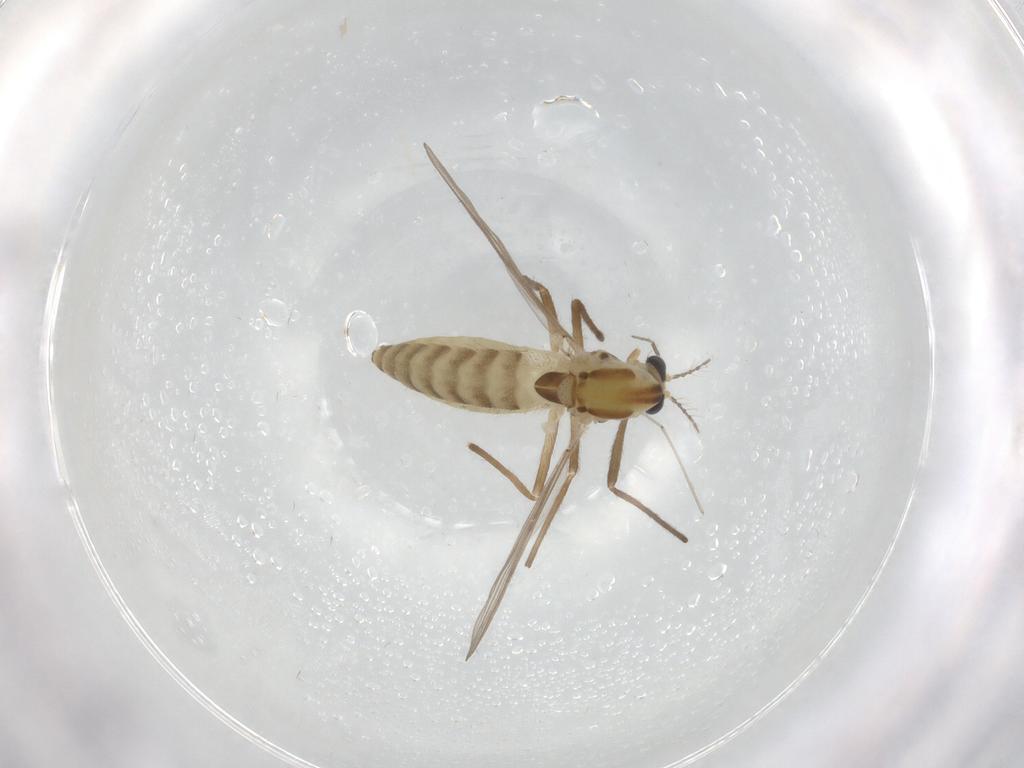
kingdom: Animalia
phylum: Arthropoda
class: Insecta
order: Diptera
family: Chironomidae
